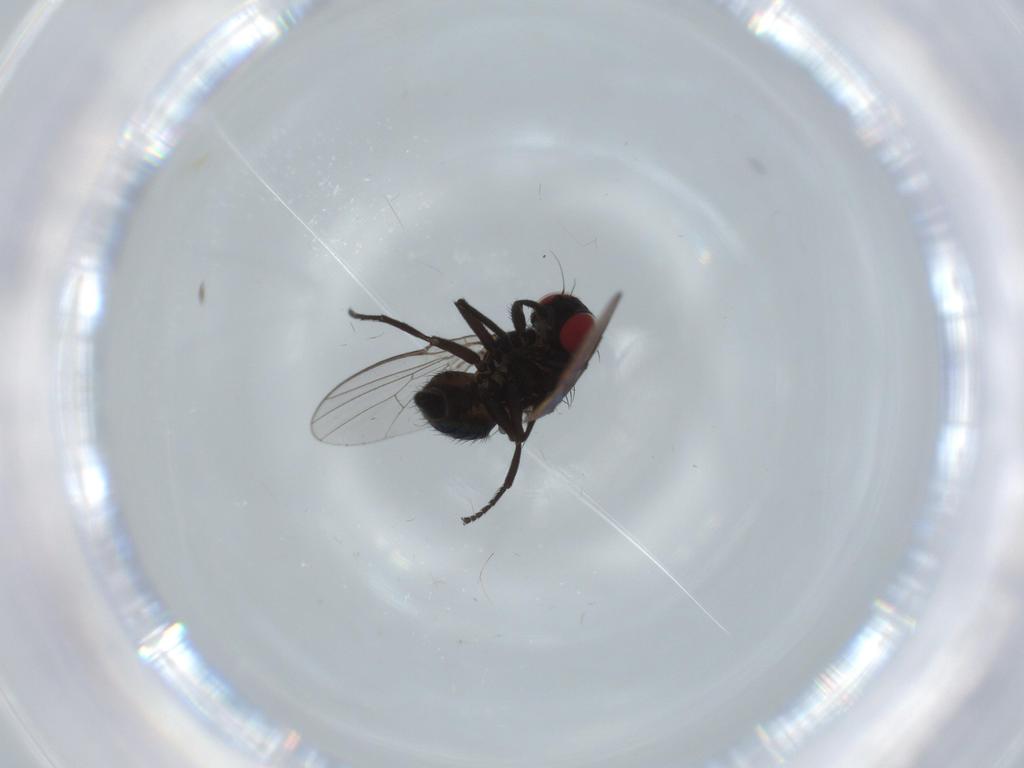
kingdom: Animalia
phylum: Arthropoda
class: Insecta
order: Diptera
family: Agromyzidae
